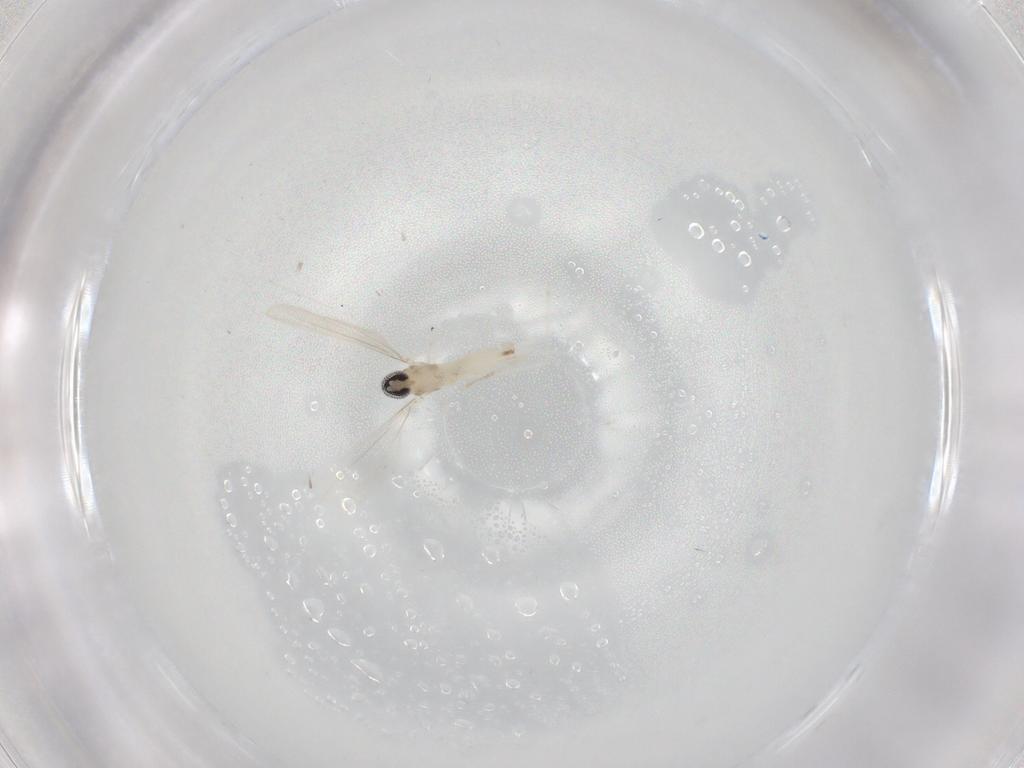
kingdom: Animalia
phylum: Arthropoda
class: Insecta
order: Diptera
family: Cecidomyiidae
